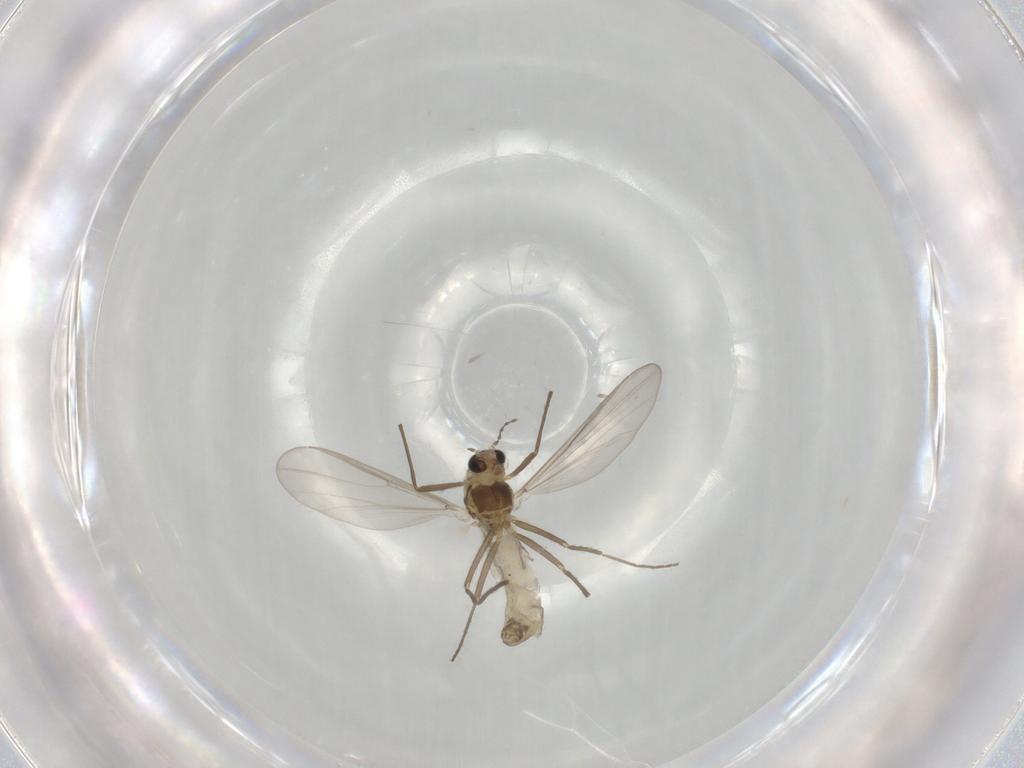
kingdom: Animalia
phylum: Arthropoda
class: Insecta
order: Diptera
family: Chironomidae
